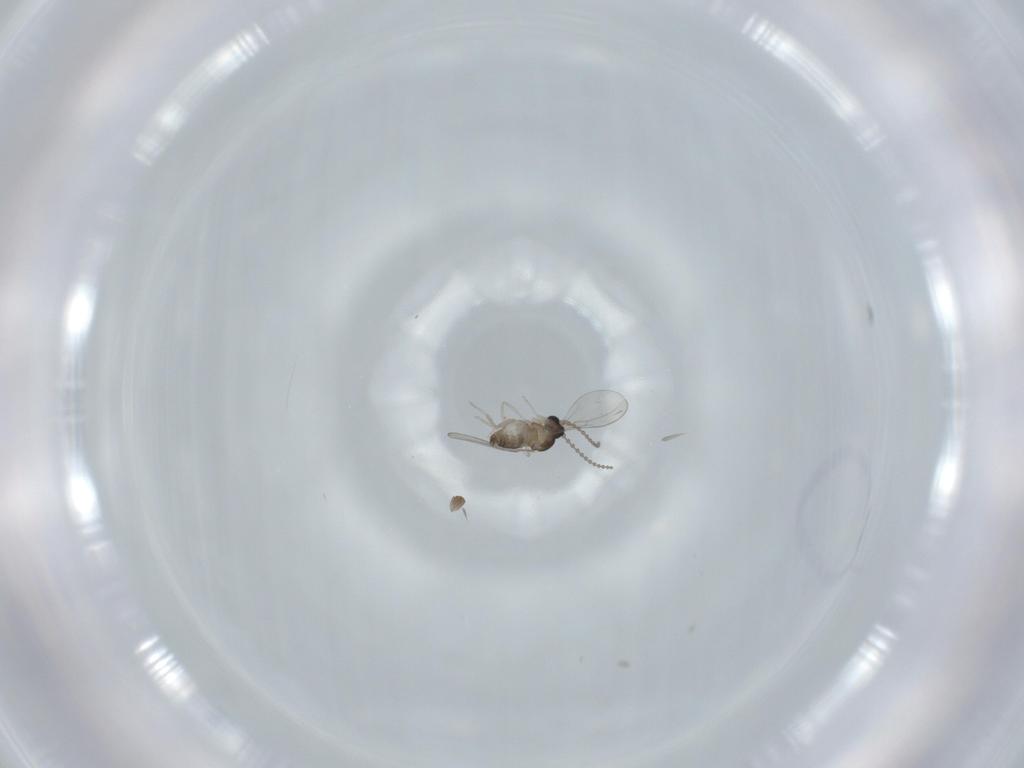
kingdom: Animalia
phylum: Arthropoda
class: Insecta
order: Diptera
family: Cecidomyiidae
